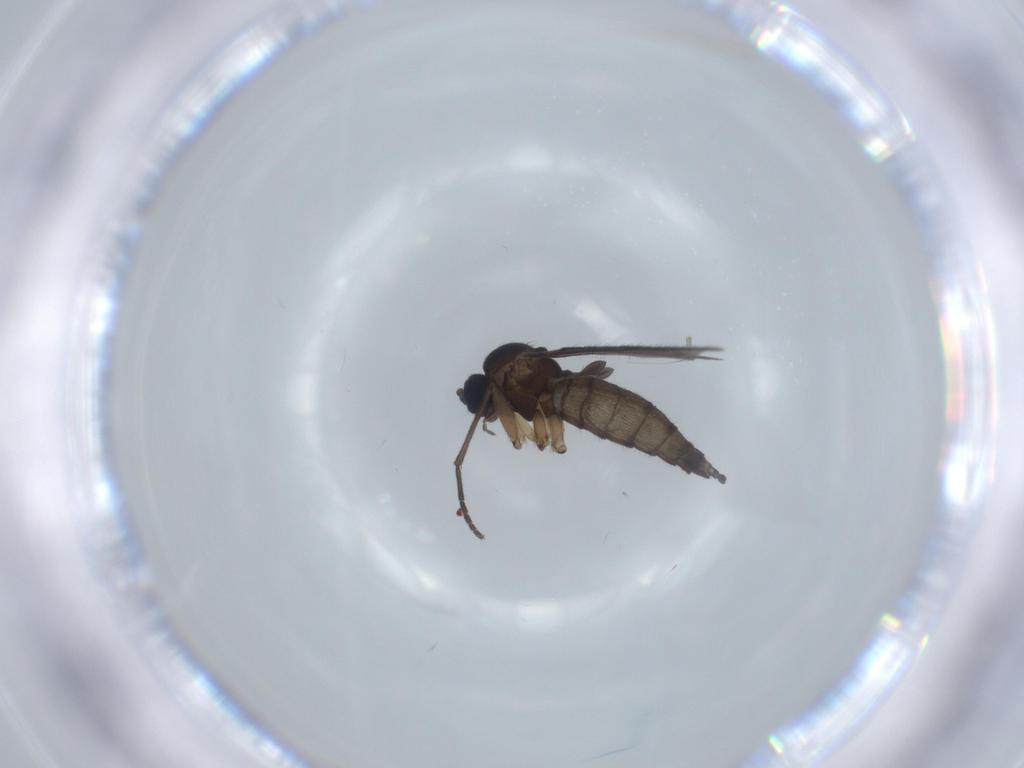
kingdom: Animalia
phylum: Arthropoda
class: Insecta
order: Diptera
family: Sciaridae
